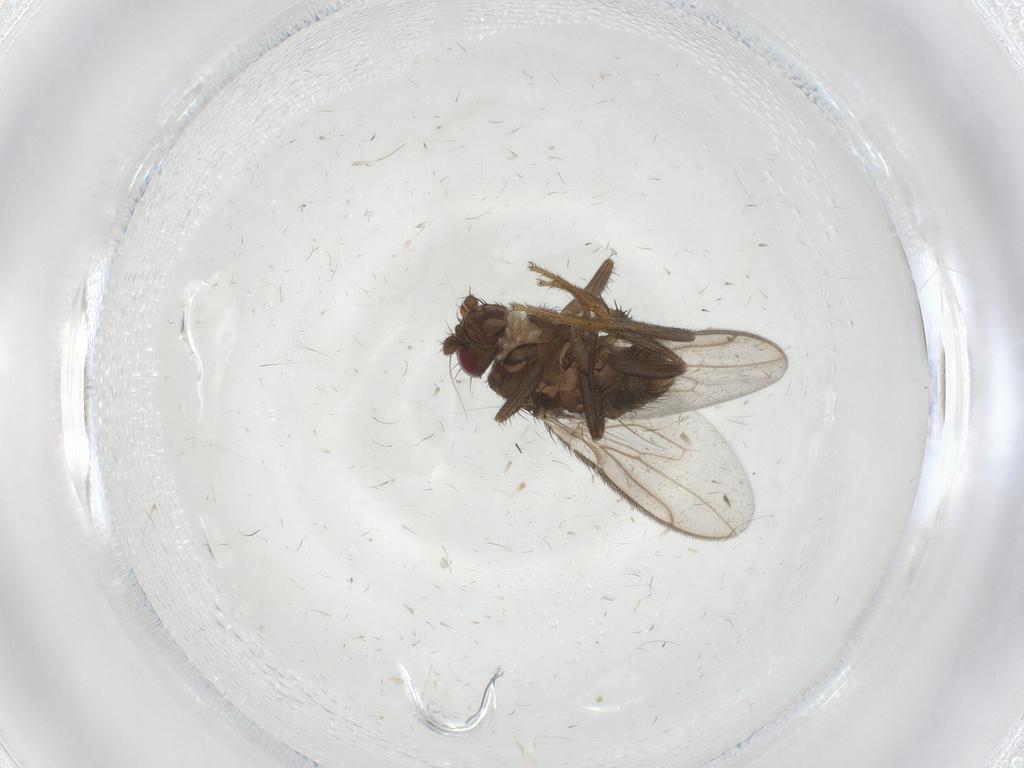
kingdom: Animalia
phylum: Arthropoda
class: Insecta
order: Diptera
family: Sphaeroceridae
